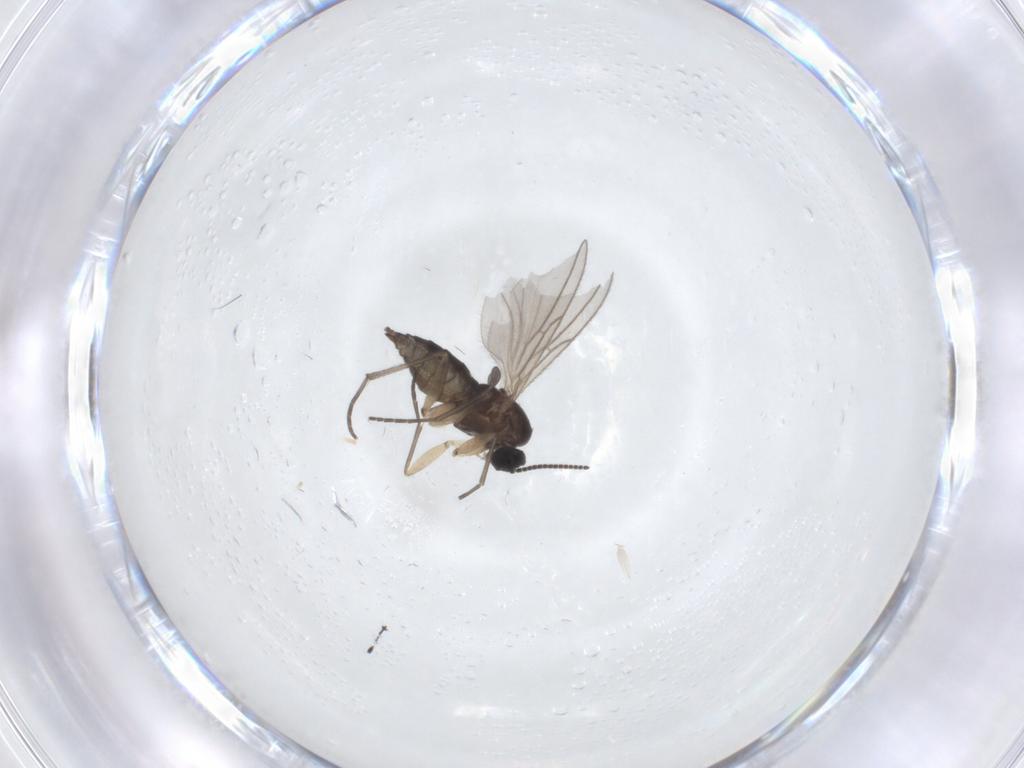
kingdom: Animalia
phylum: Arthropoda
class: Insecta
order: Diptera
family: Sciaridae
